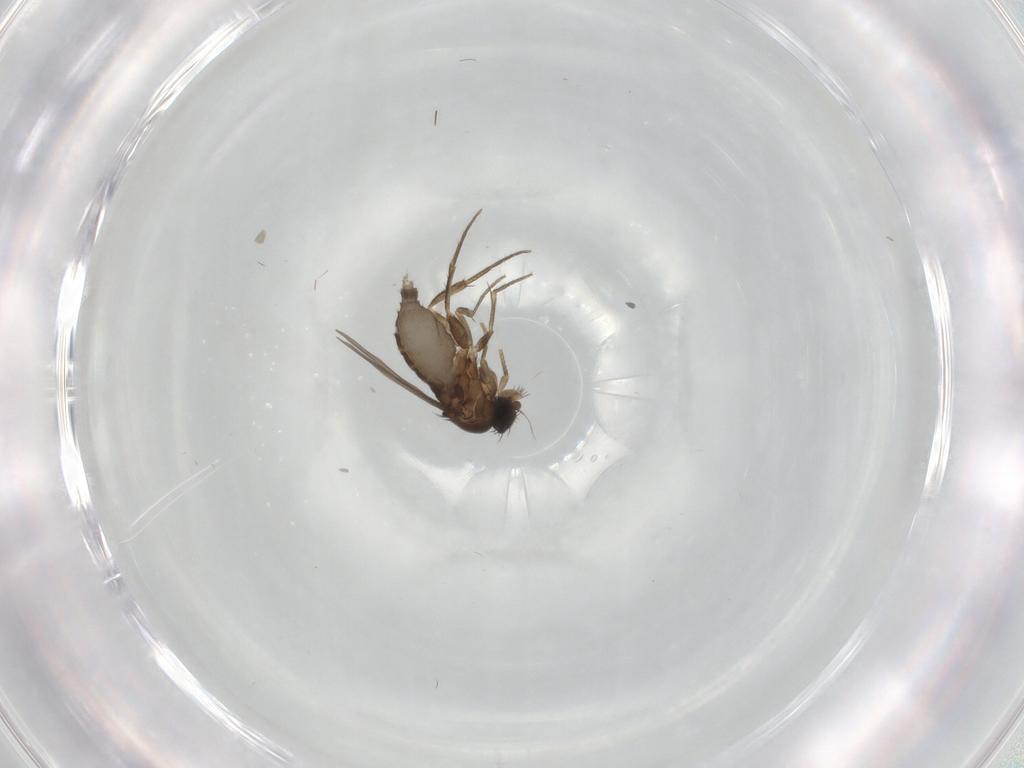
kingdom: Animalia
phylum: Arthropoda
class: Insecta
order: Diptera
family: Phoridae
